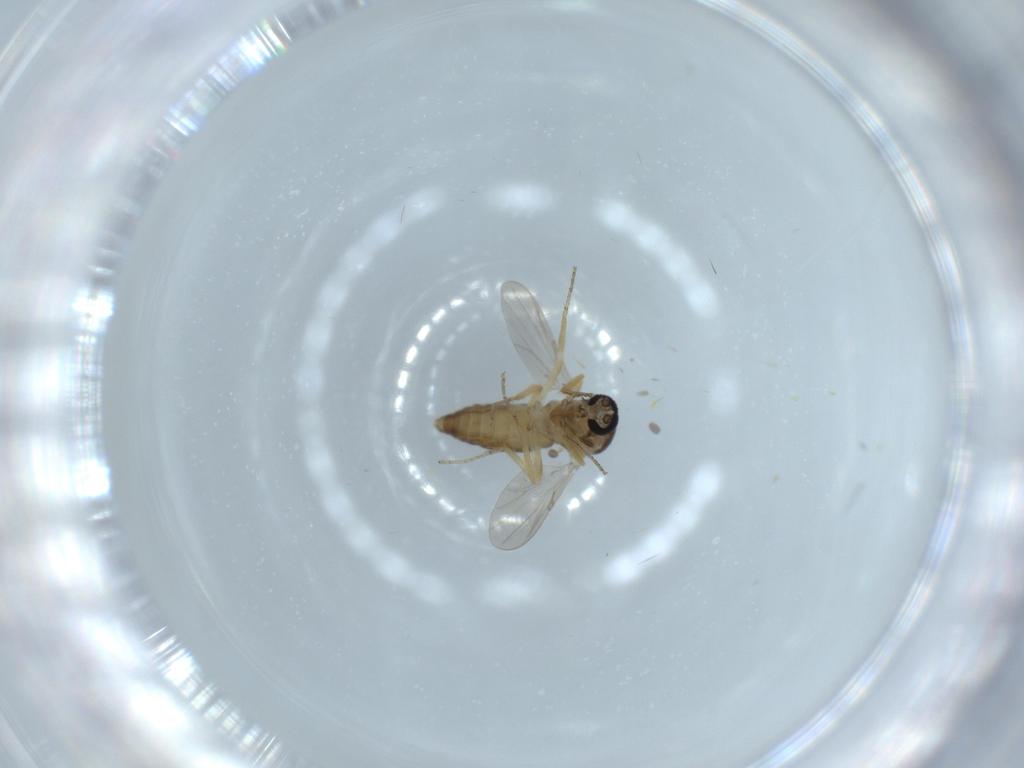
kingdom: Animalia
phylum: Arthropoda
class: Insecta
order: Diptera
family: Ceratopogonidae
